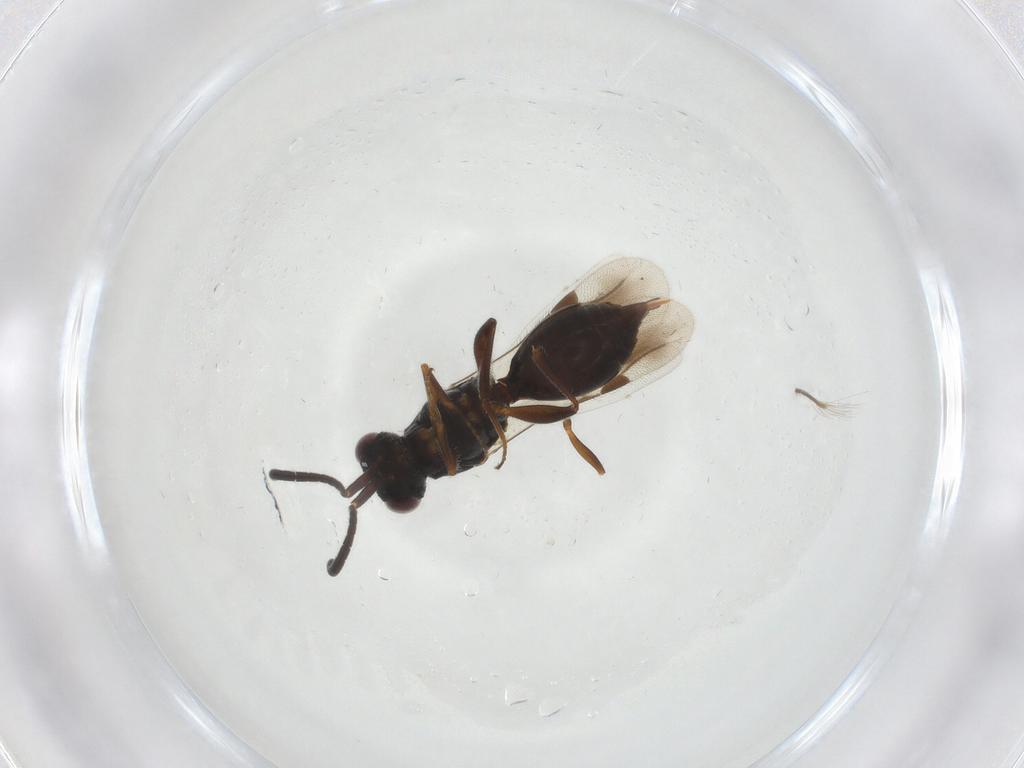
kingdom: Animalia
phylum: Arthropoda
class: Insecta
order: Hymenoptera
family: Megaspilidae
